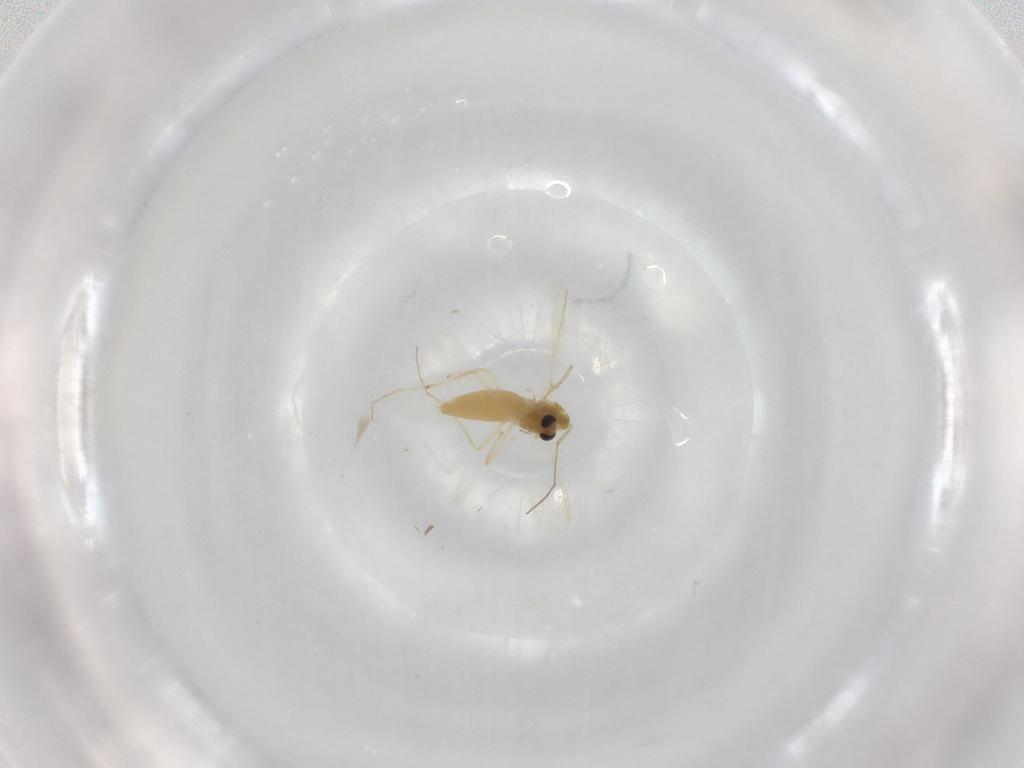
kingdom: Animalia
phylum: Arthropoda
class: Insecta
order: Diptera
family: Chironomidae
